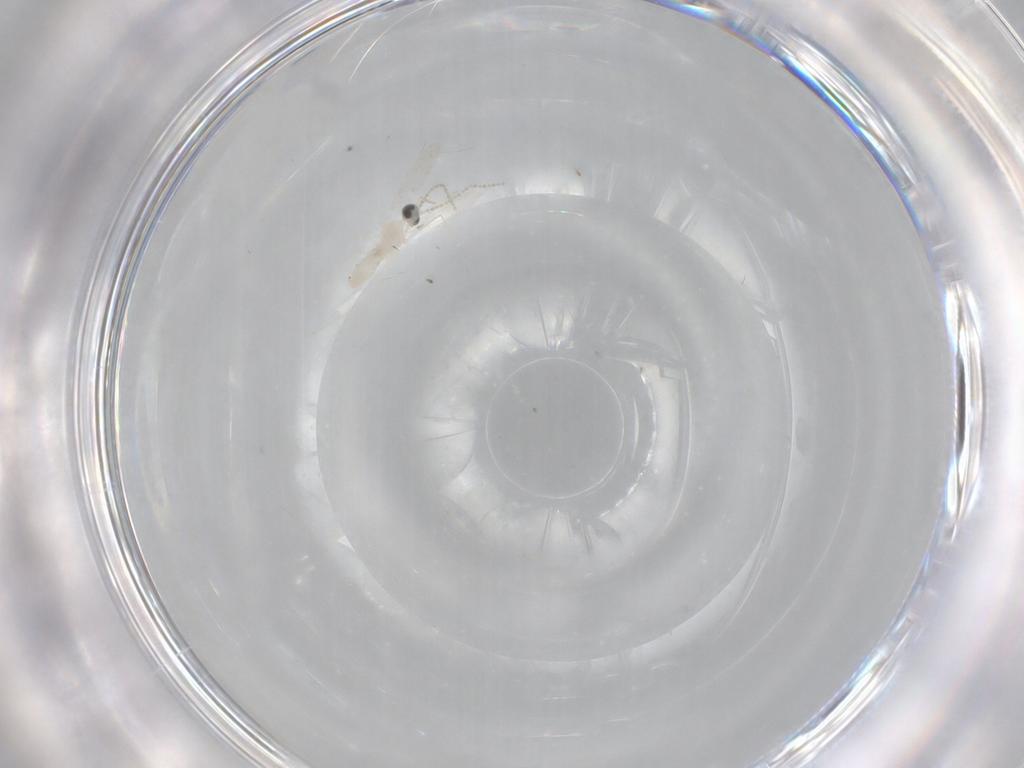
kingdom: Animalia
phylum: Arthropoda
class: Insecta
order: Diptera
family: Cecidomyiidae
